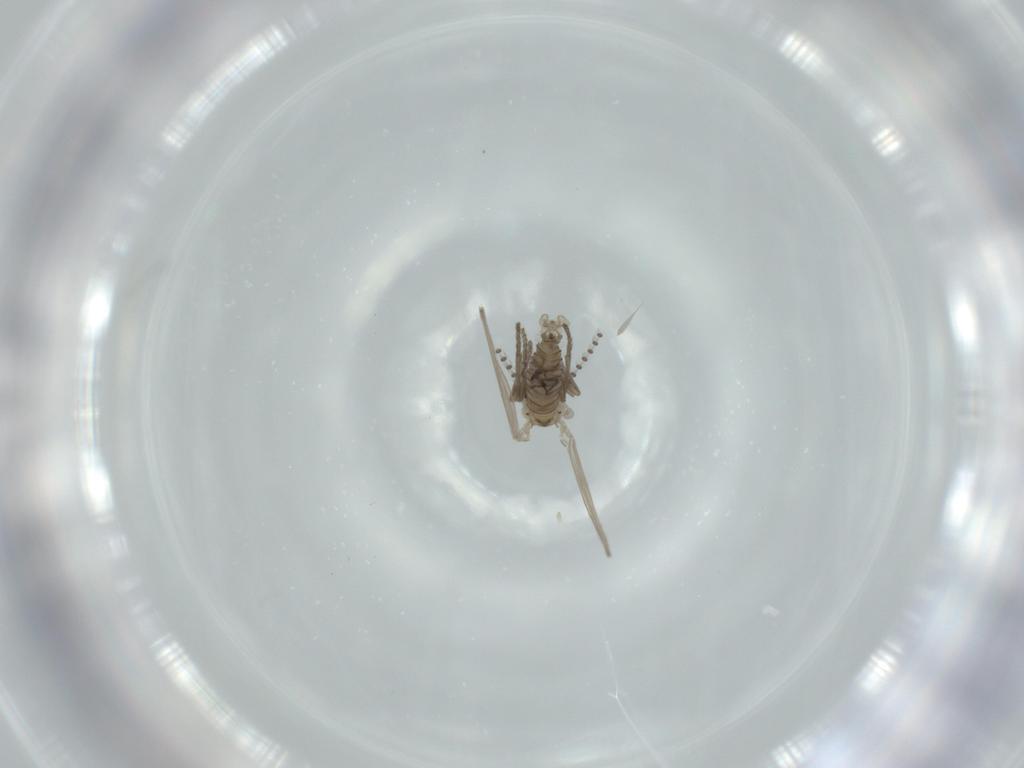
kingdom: Animalia
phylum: Arthropoda
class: Insecta
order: Diptera
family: Psychodidae
